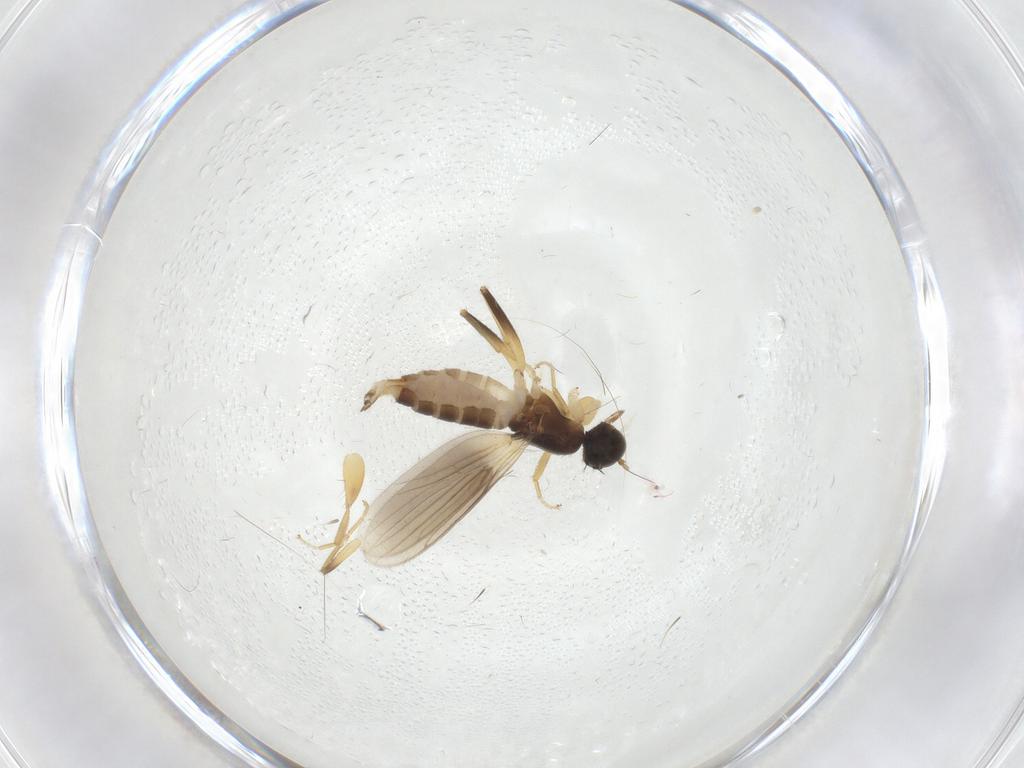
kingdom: Animalia
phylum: Arthropoda
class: Insecta
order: Diptera
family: Hybotidae
